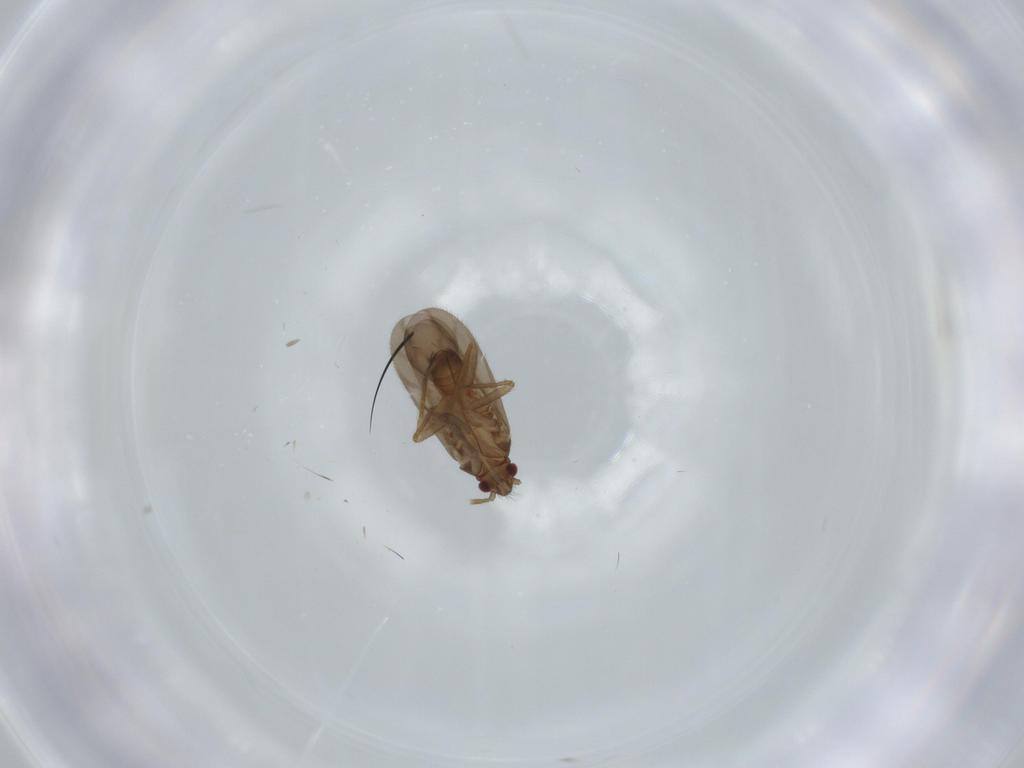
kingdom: Animalia
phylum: Arthropoda
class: Insecta
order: Hemiptera
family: Ceratocombidae
